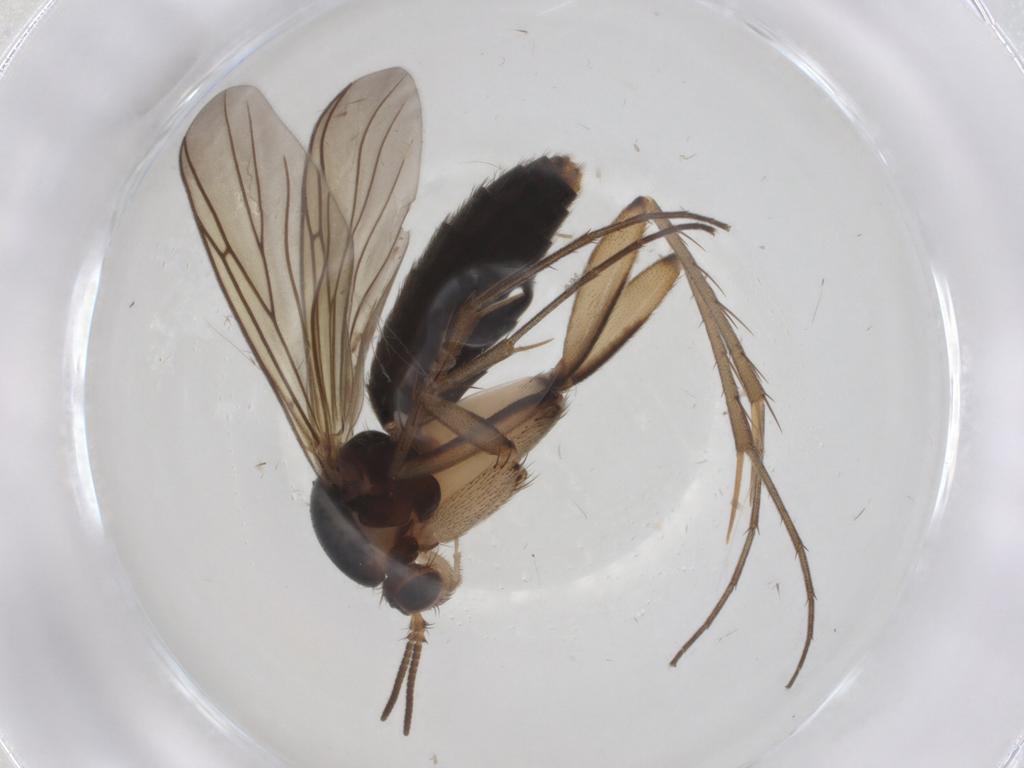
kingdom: Animalia
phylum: Arthropoda
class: Insecta
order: Diptera
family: Mycetophilidae
